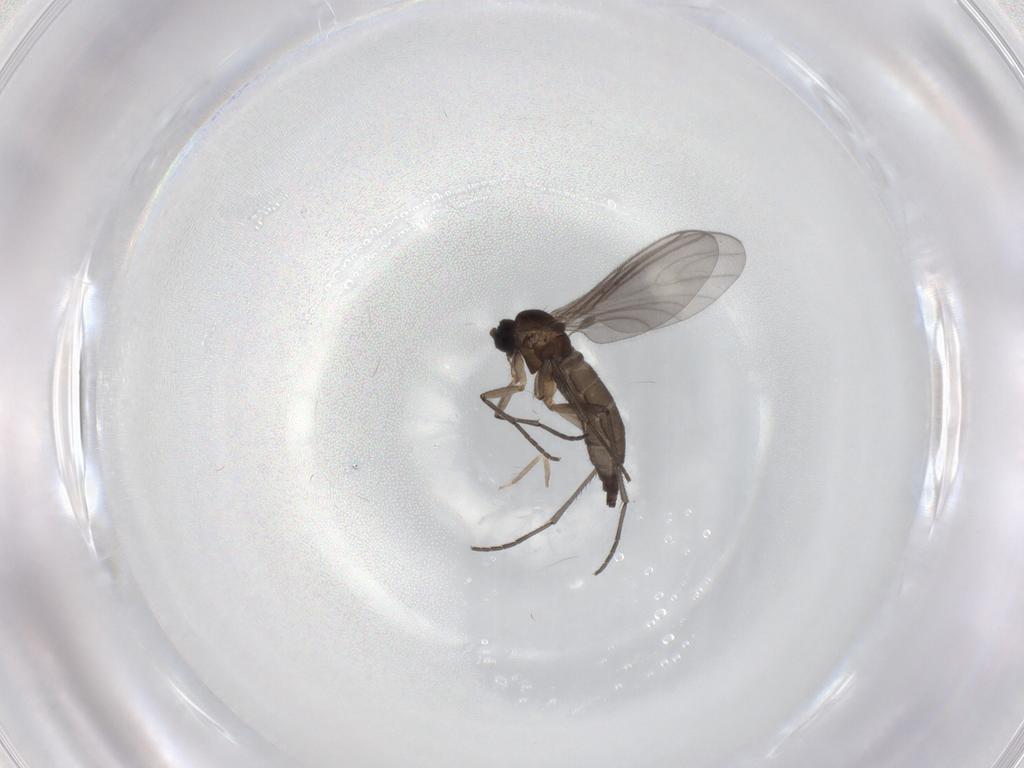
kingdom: Animalia
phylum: Arthropoda
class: Insecta
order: Diptera
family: Sciaridae
